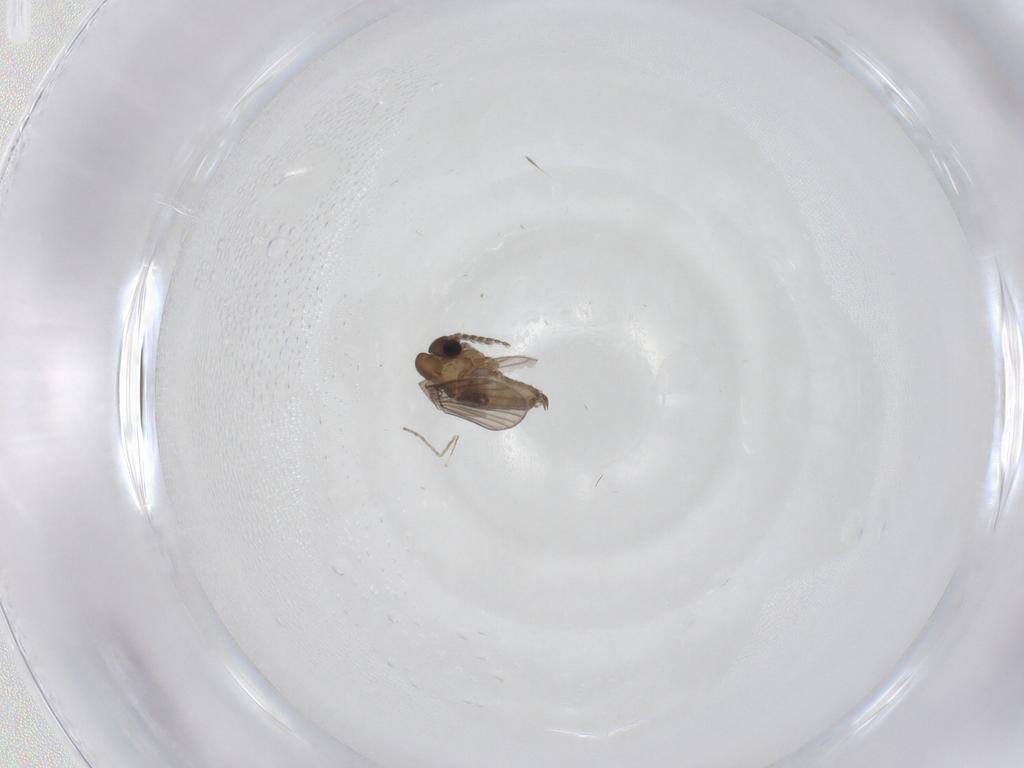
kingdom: Animalia
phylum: Arthropoda
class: Insecta
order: Diptera
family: Psychodidae
